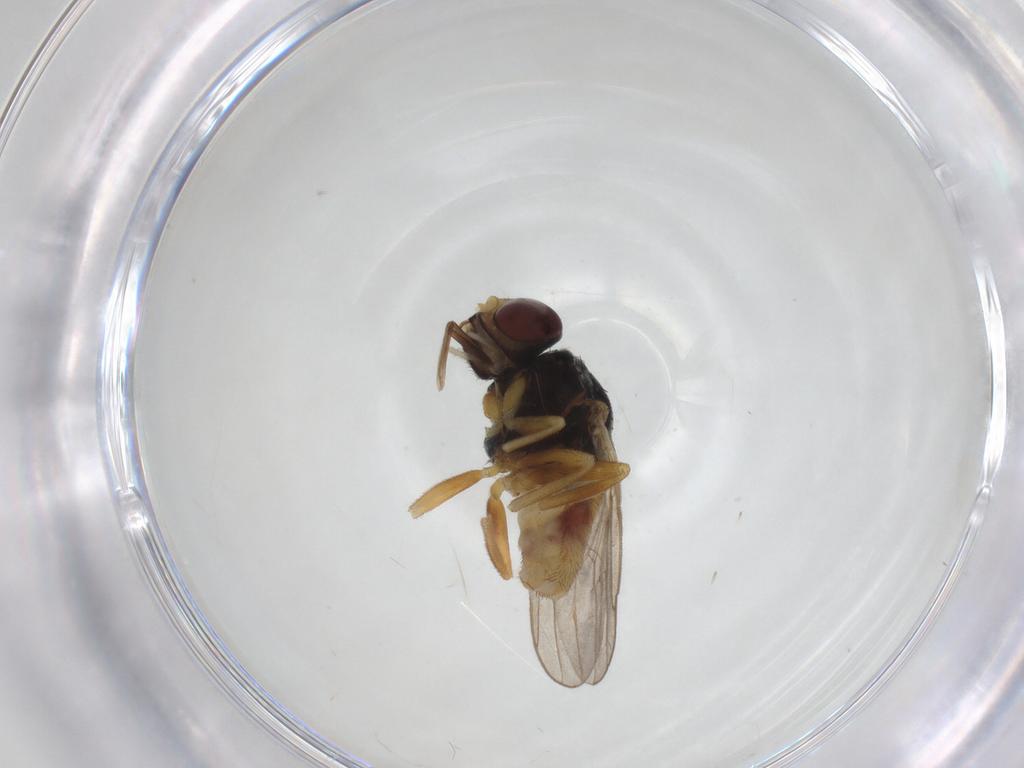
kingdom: Animalia
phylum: Arthropoda
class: Insecta
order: Diptera
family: Chloropidae
